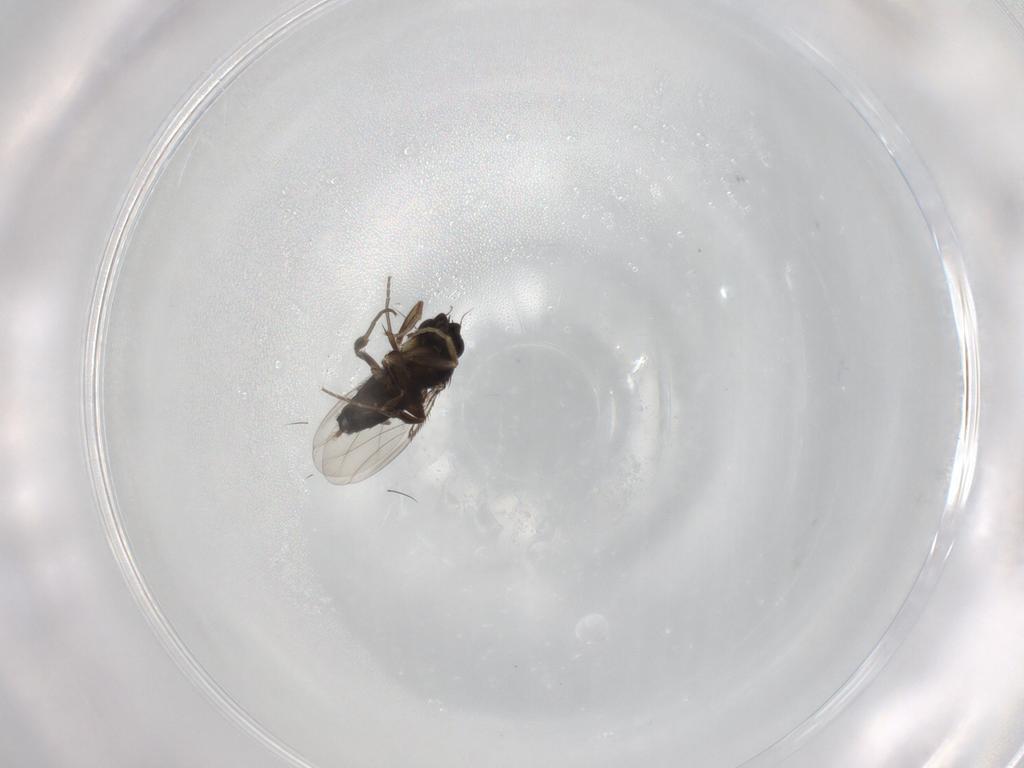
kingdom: Animalia
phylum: Arthropoda
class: Insecta
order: Diptera
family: Phoridae
